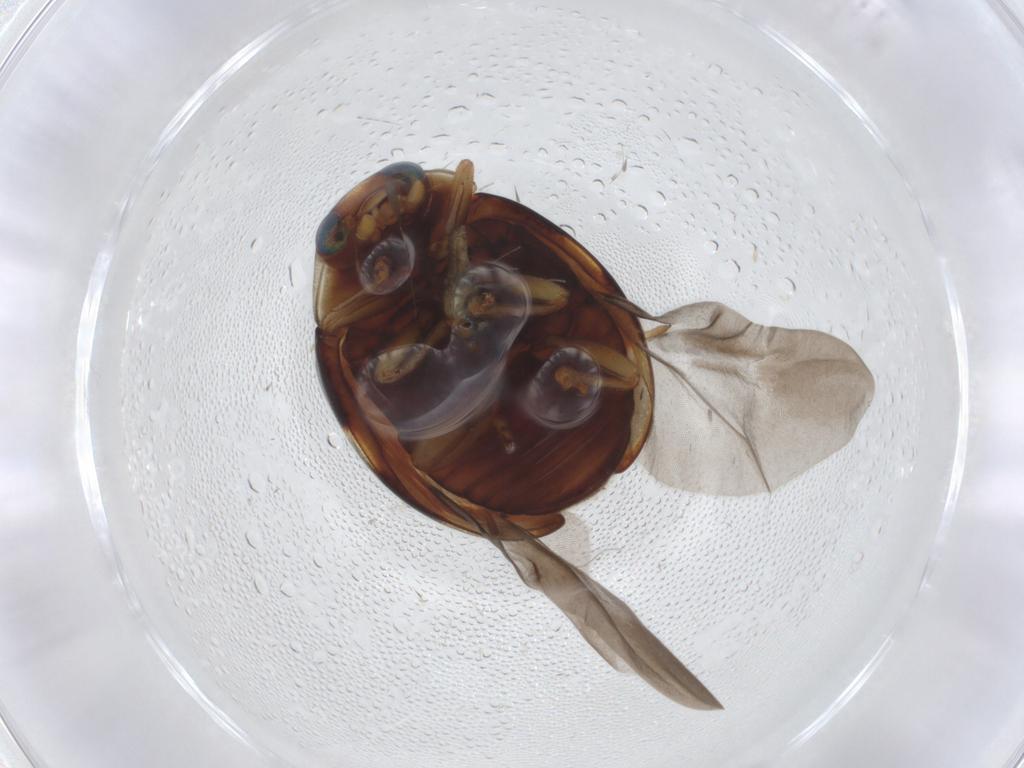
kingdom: Animalia
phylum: Arthropoda
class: Insecta
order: Coleoptera
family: Coccinellidae
